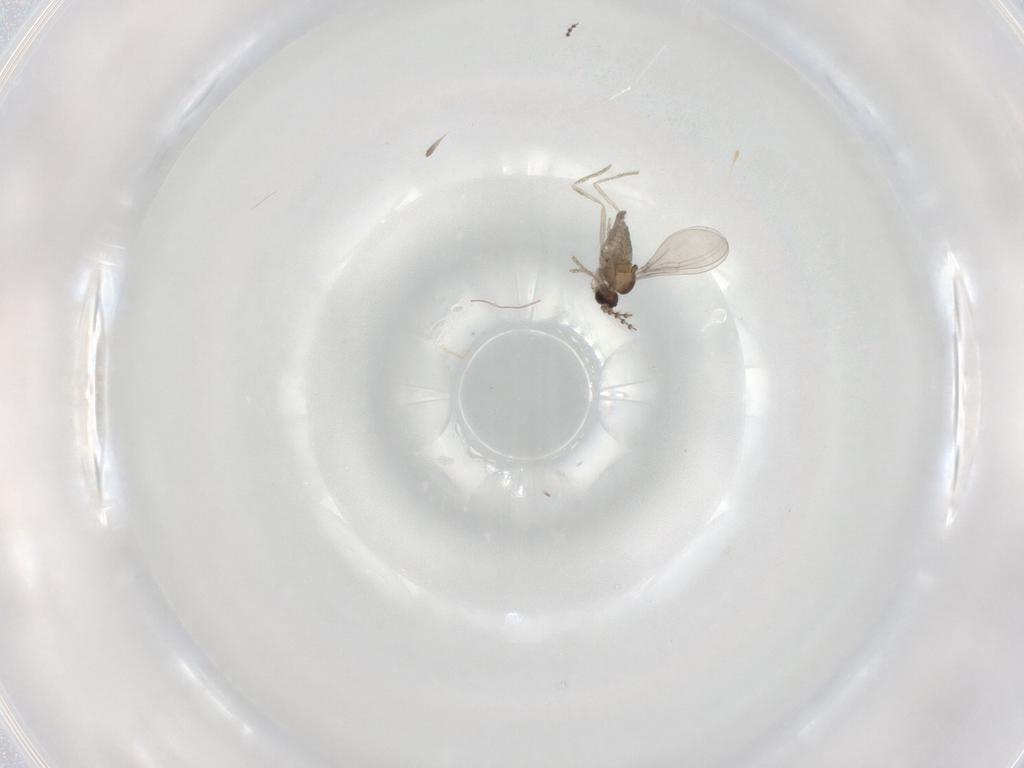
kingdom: Animalia
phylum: Arthropoda
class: Insecta
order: Diptera
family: Cecidomyiidae
